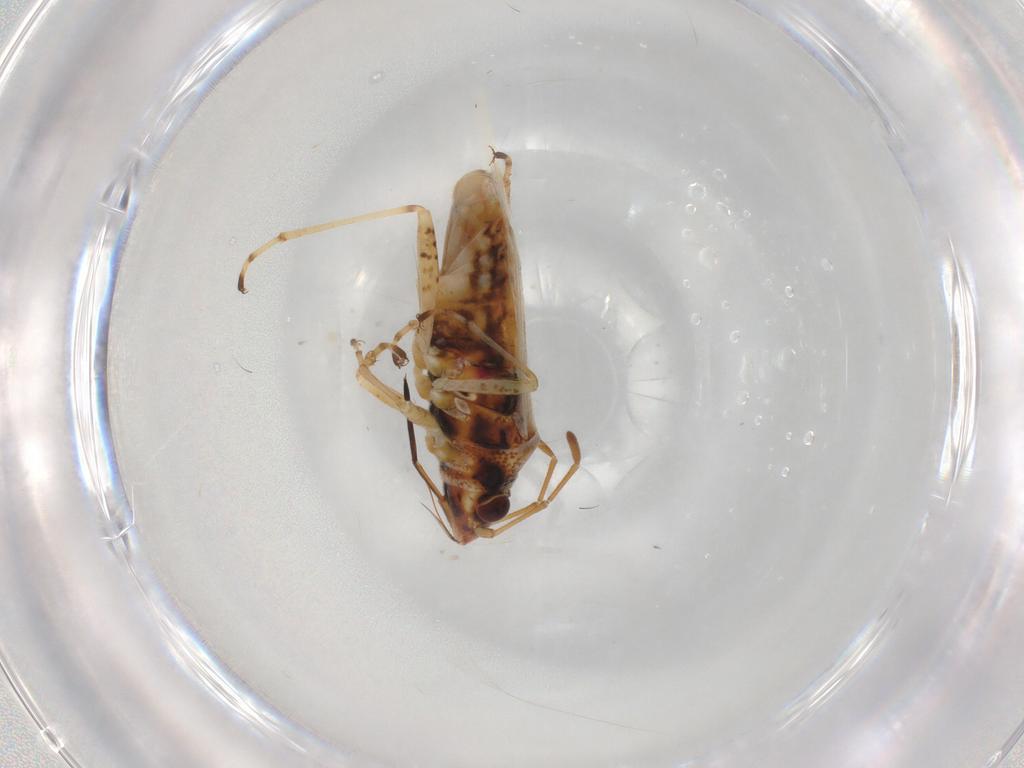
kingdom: Animalia
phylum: Arthropoda
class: Insecta
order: Hemiptera
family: Lygaeidae
